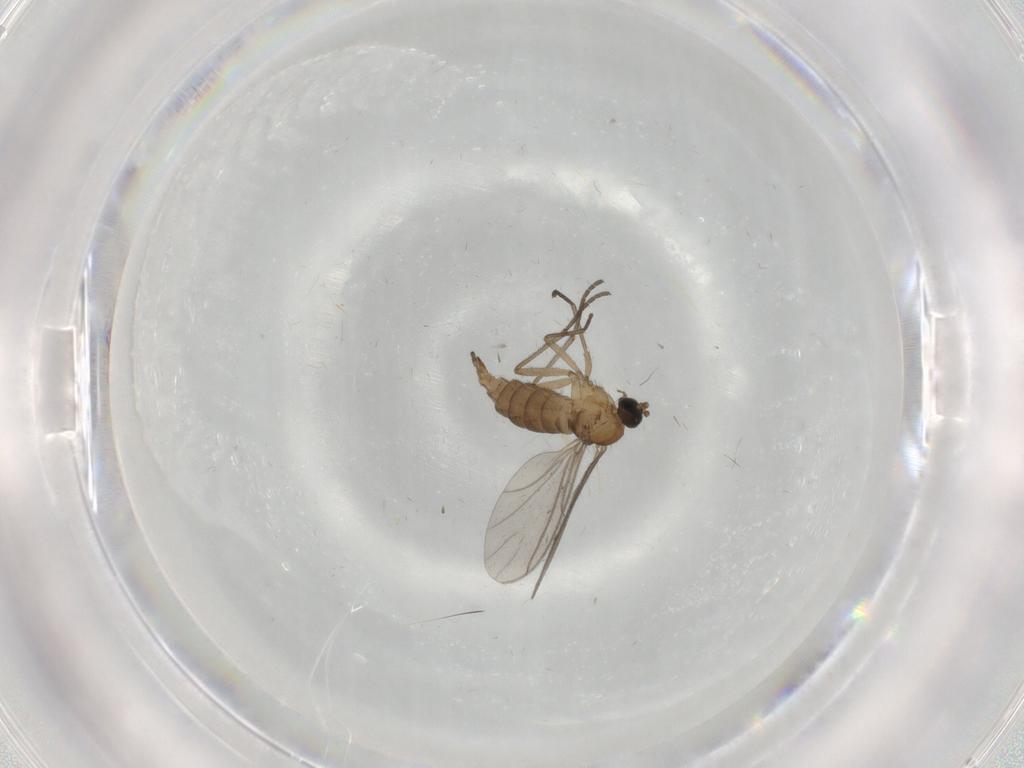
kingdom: Animalia
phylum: Arthropoda
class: Insecta
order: Diptera
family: Sciaridae
